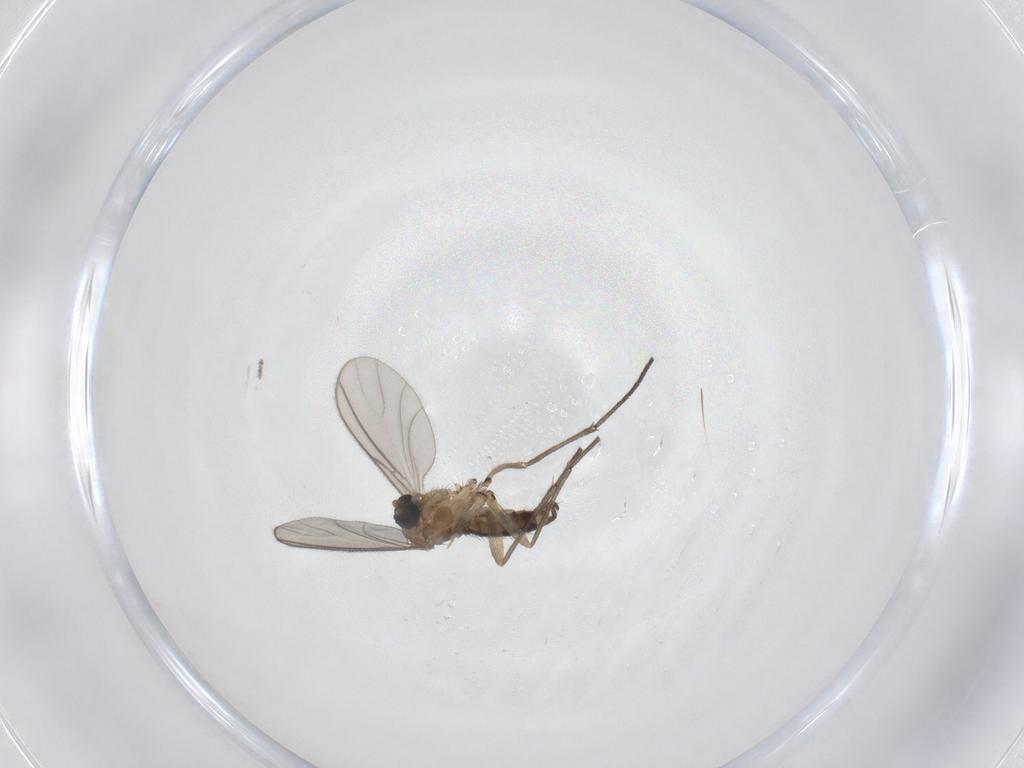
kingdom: Animalia
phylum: Arthropoda
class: Insecta
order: Diptera
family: Sciaridae
